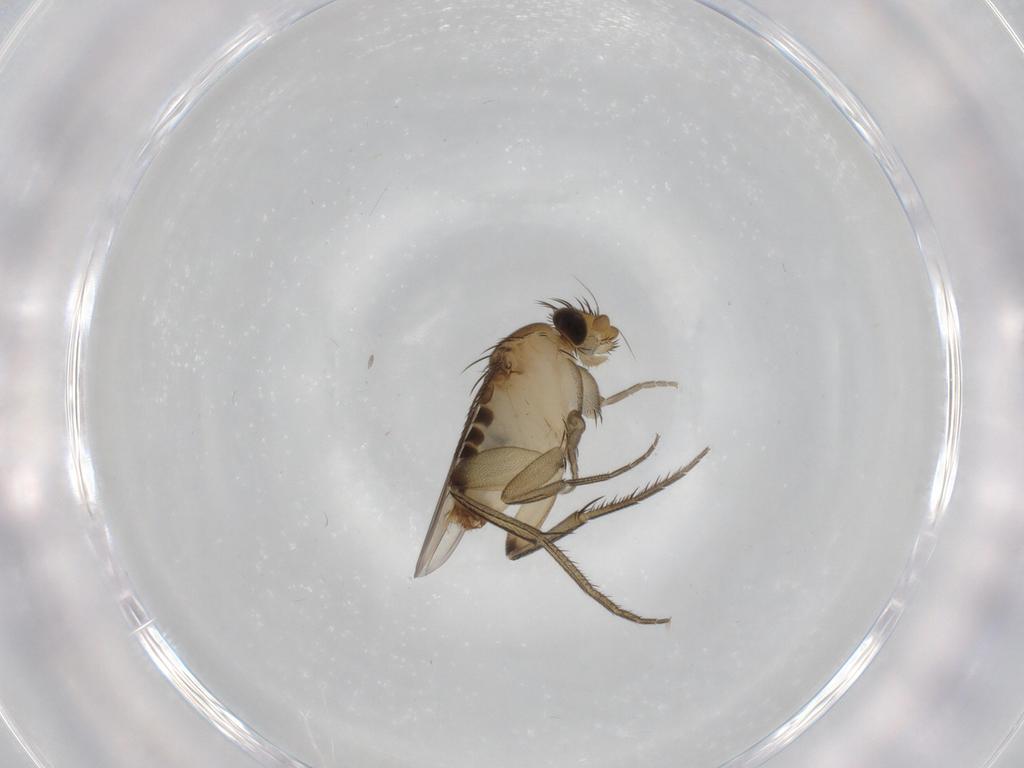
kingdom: Animalia
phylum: Arthropoda
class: Insecta
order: Diptera
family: Phoridae
